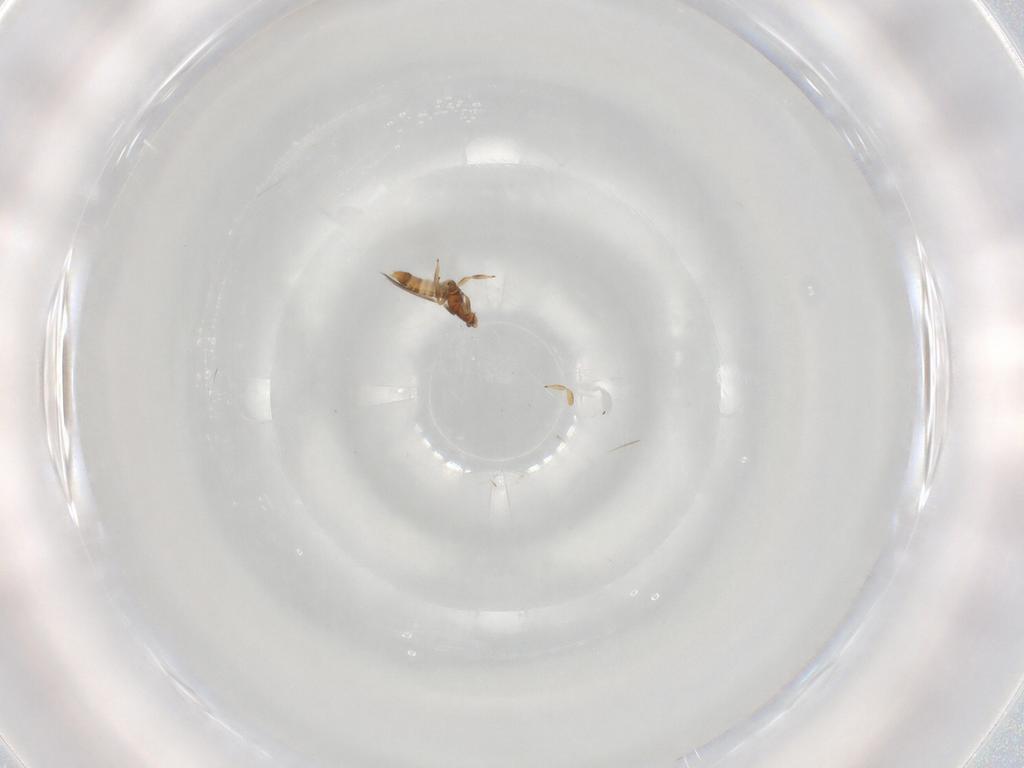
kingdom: Animalia
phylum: Arthropoda
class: Insecta
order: Thysanoptera
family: Thripidae
